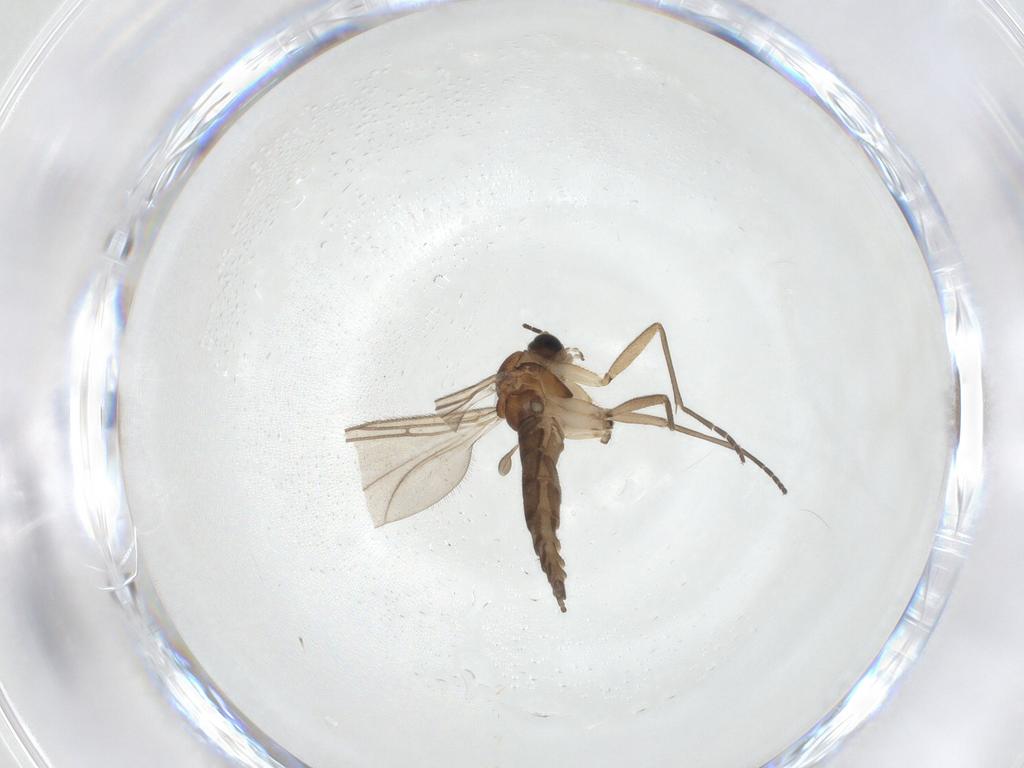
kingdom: Animalia
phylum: Arthropoda
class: Insecta
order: Diptera
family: Sciaridae
